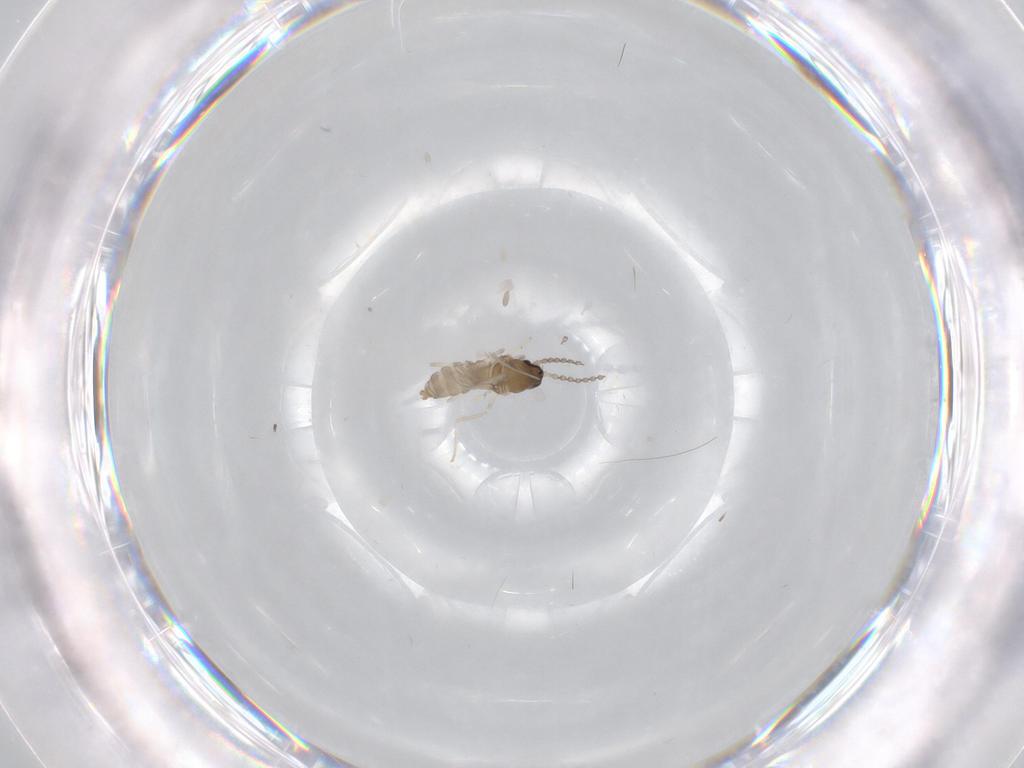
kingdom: Animalia
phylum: Arthropoda
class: Insecta
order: Diptera
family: Cecidomyiidae
